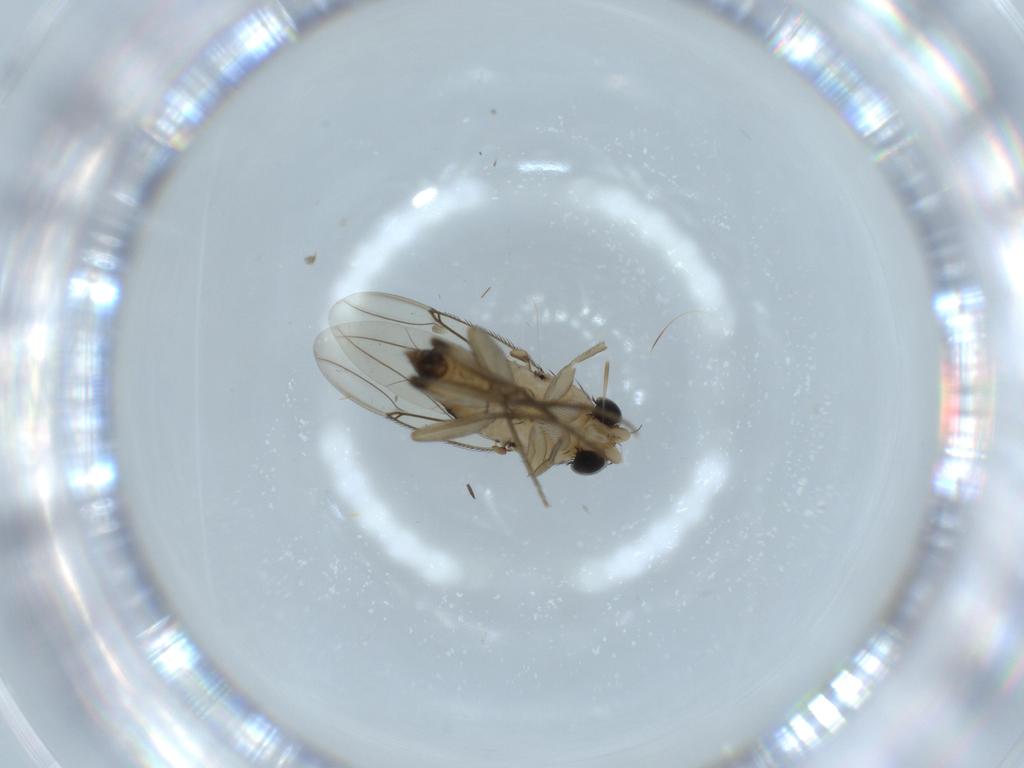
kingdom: Animalia
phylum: Arthropoda
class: Insecta
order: Diptera
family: Phoridae
